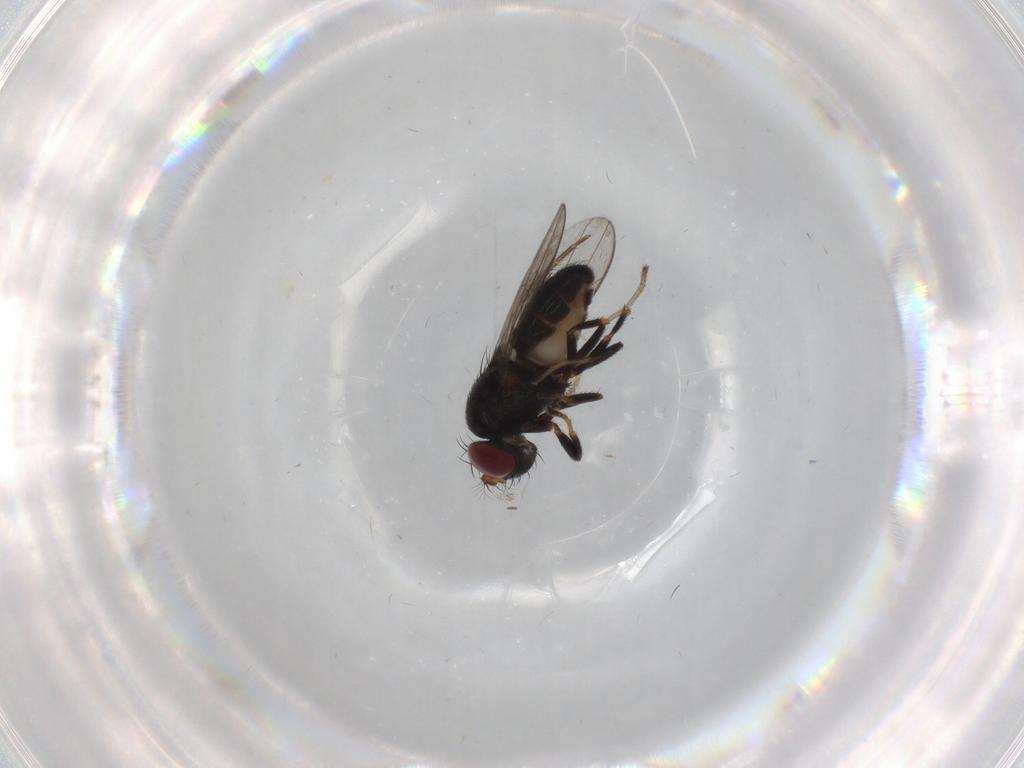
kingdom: Animalia
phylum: Arthropoda
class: Insecta
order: Diptera
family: Ephydridae
